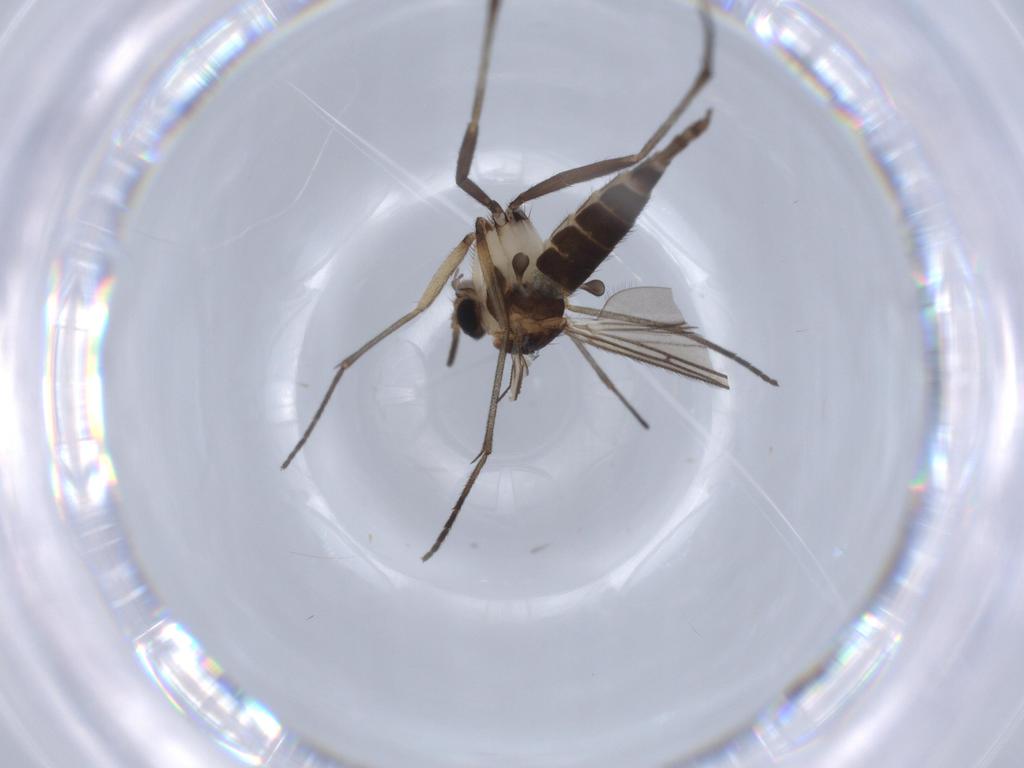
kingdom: Animalia
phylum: Arthropoda
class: Insecta
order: Diptera
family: Sciaridae
